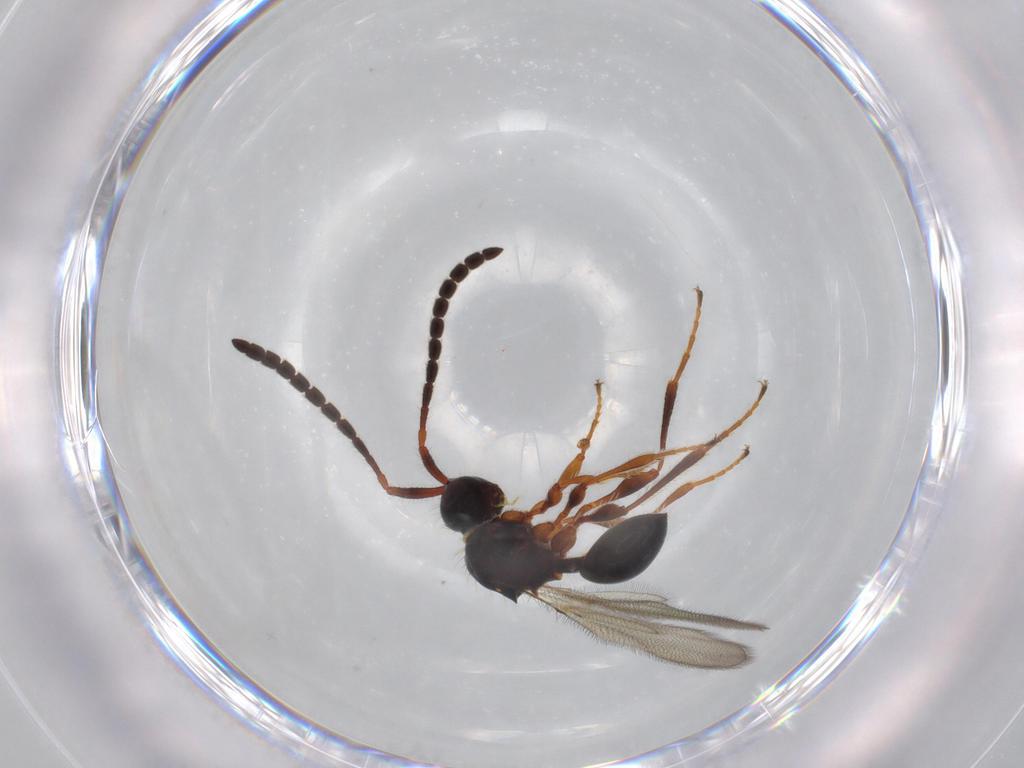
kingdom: Animalia
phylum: Arthropoda
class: Insecta
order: Hymenoptera
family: Diapriidae
